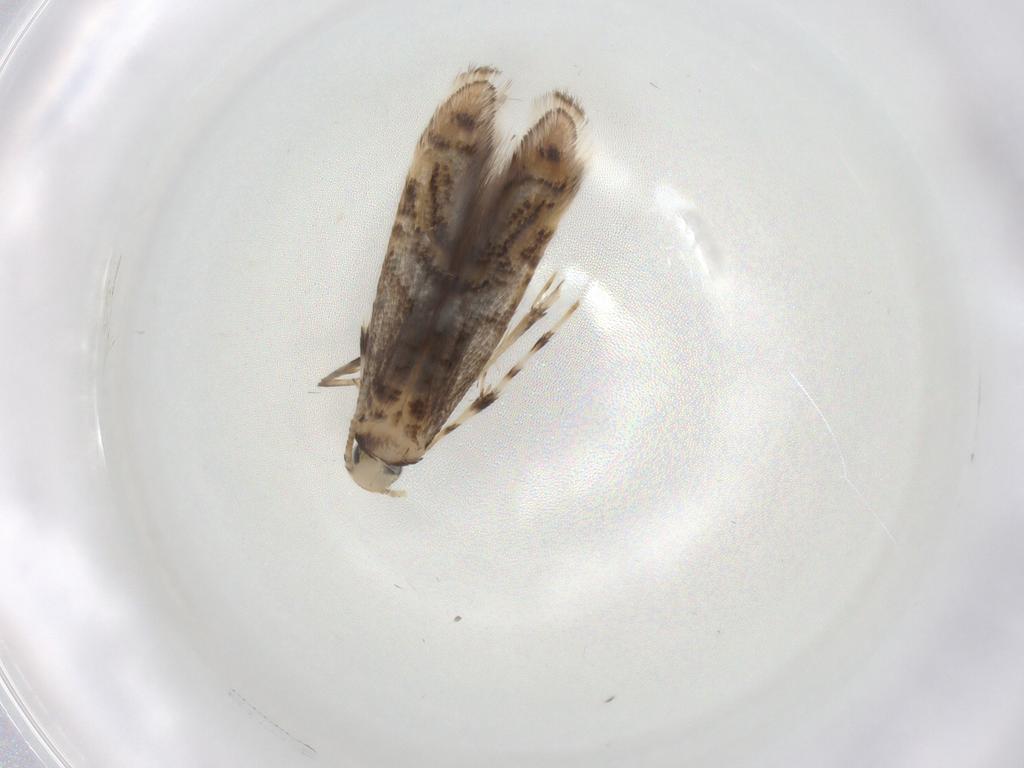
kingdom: Animalia
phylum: Arthropoda
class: Insecta
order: Lepidoptera
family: Gracillariidae
